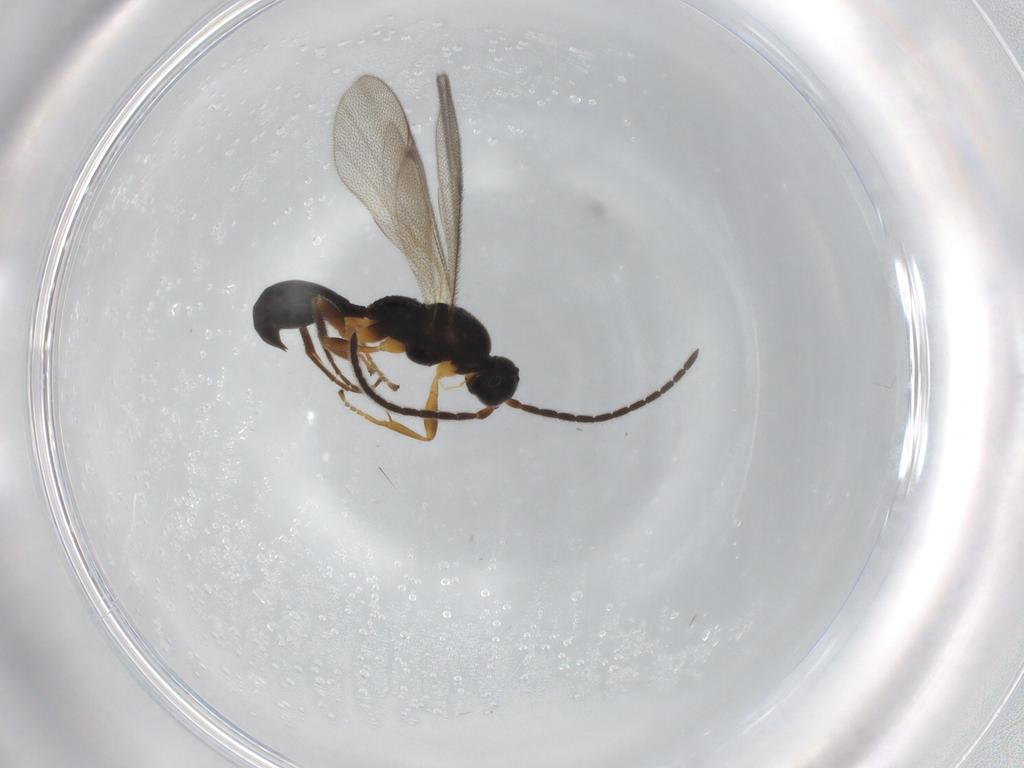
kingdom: Animalia
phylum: Arthropoda
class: Insecta
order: Hymenoptera
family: Proctotrupidae
